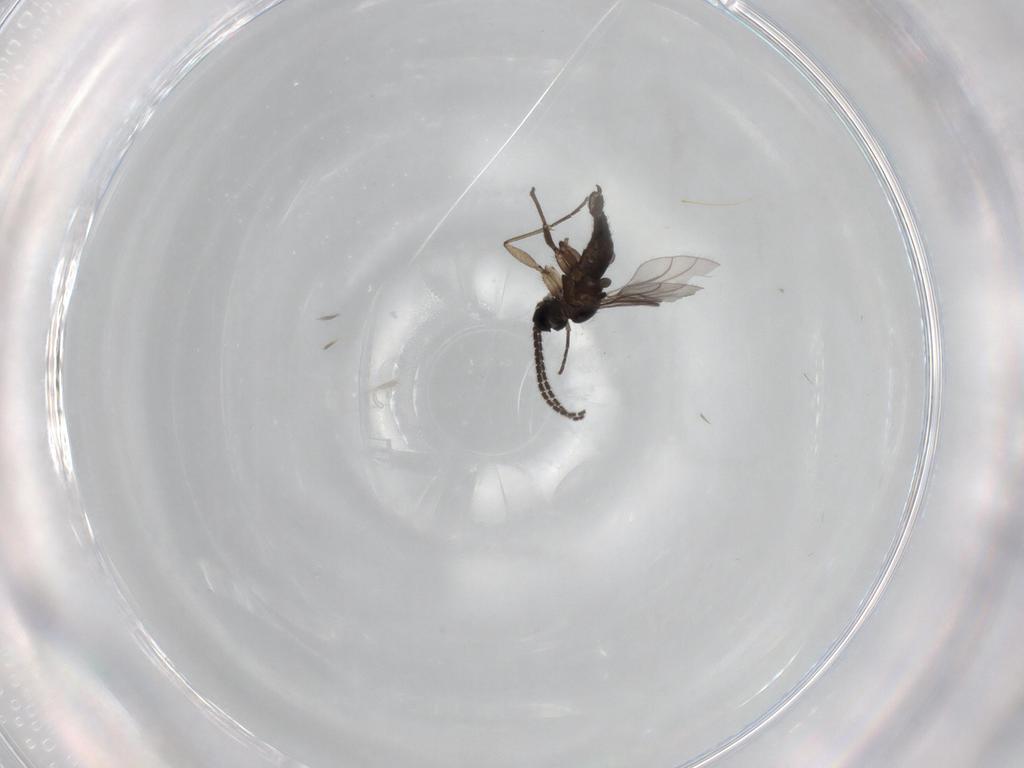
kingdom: Animalia
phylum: Arthropoda
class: Insecta
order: Diptera
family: Sciaridae
